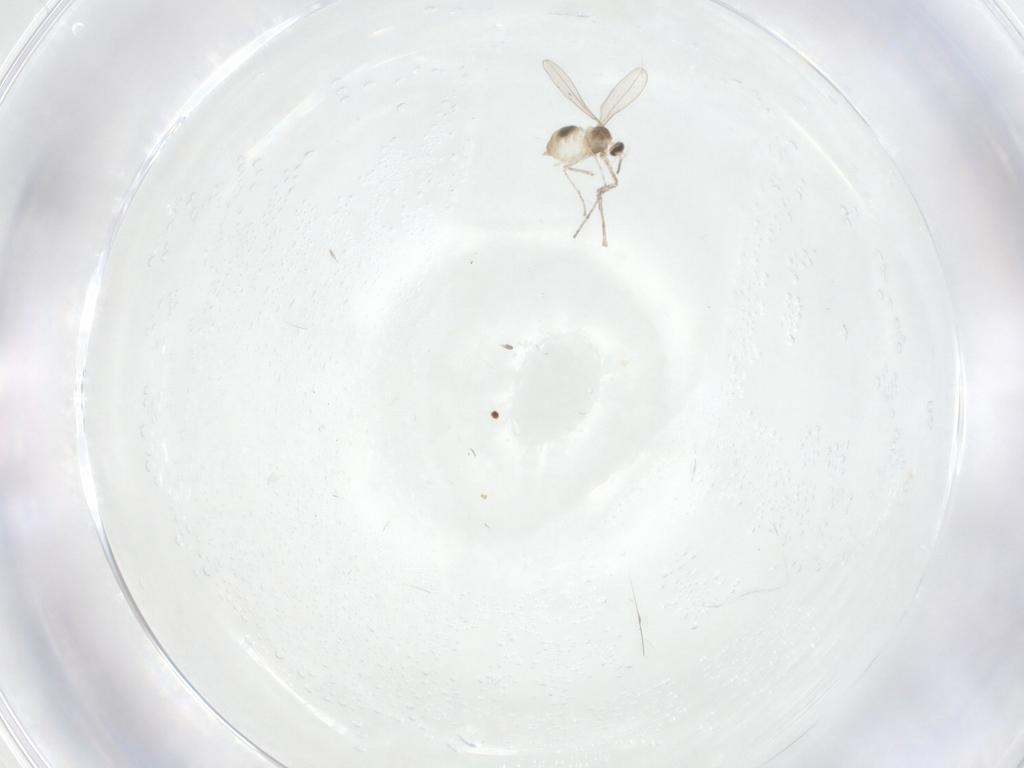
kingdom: Animalia
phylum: Arthropoda
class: Insecta
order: Diptera
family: Cecidomyiidae
